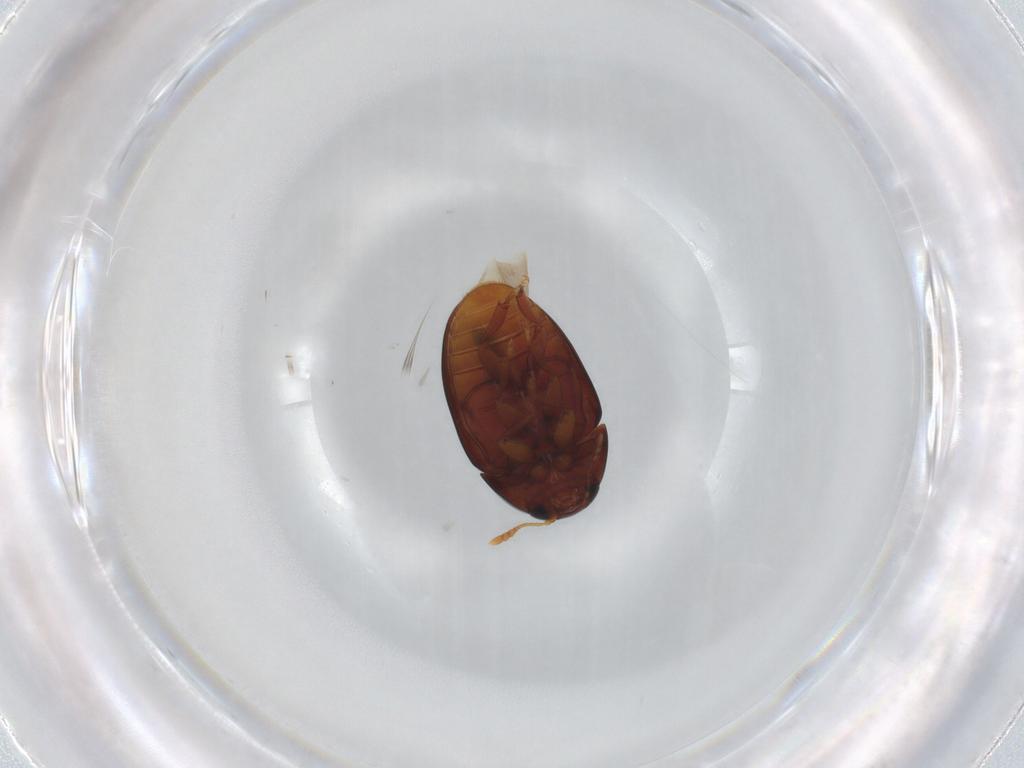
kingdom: Animalia
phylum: Arthropoda
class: Insecta
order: Coleoptera
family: Phalacridae
